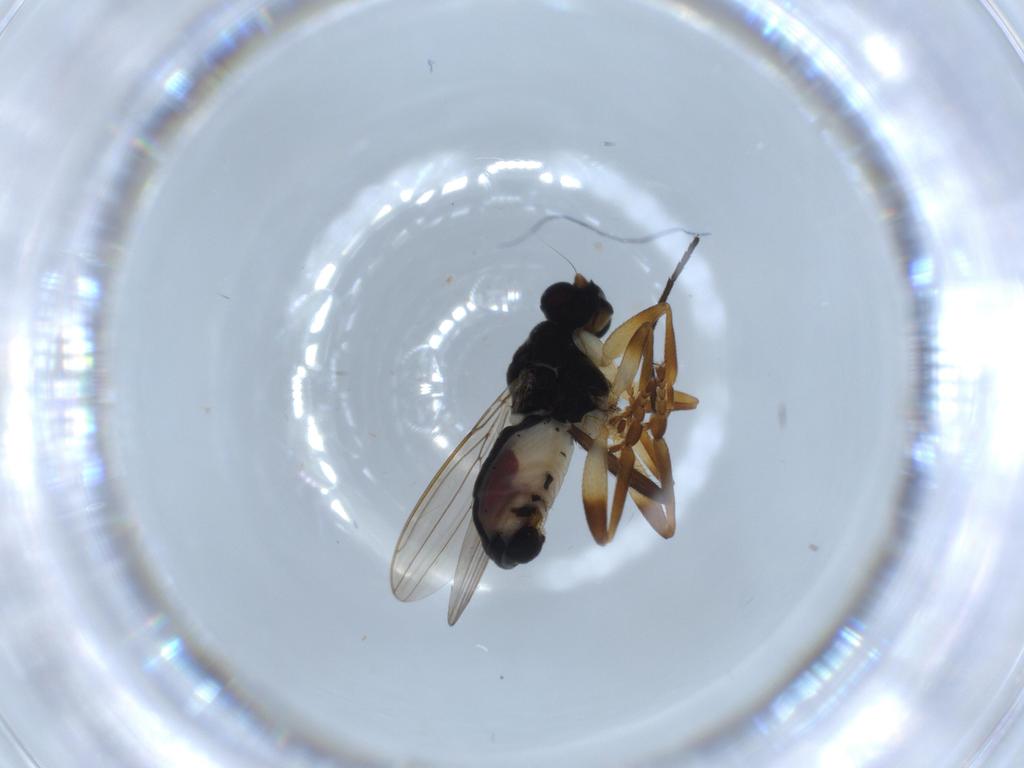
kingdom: Animalia
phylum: Arthropoda
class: Insecta
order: Diptera
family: Sciaridae
